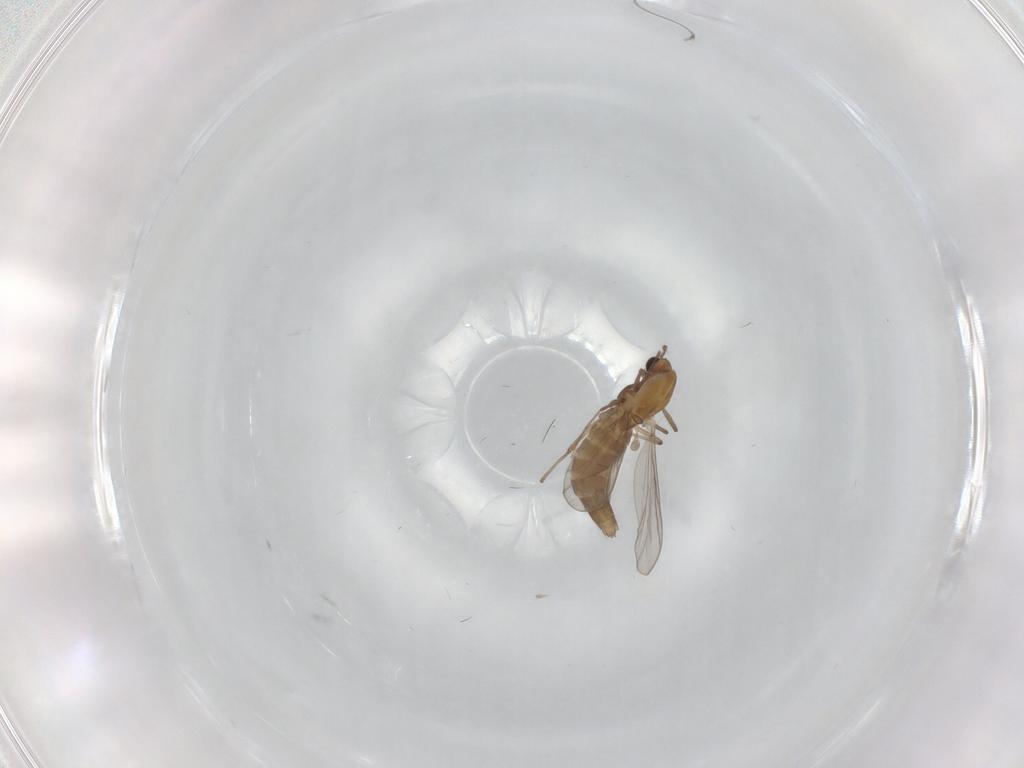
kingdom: Animalia
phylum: Arthropoda
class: Insecta
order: Diptera
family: Chironomidae
